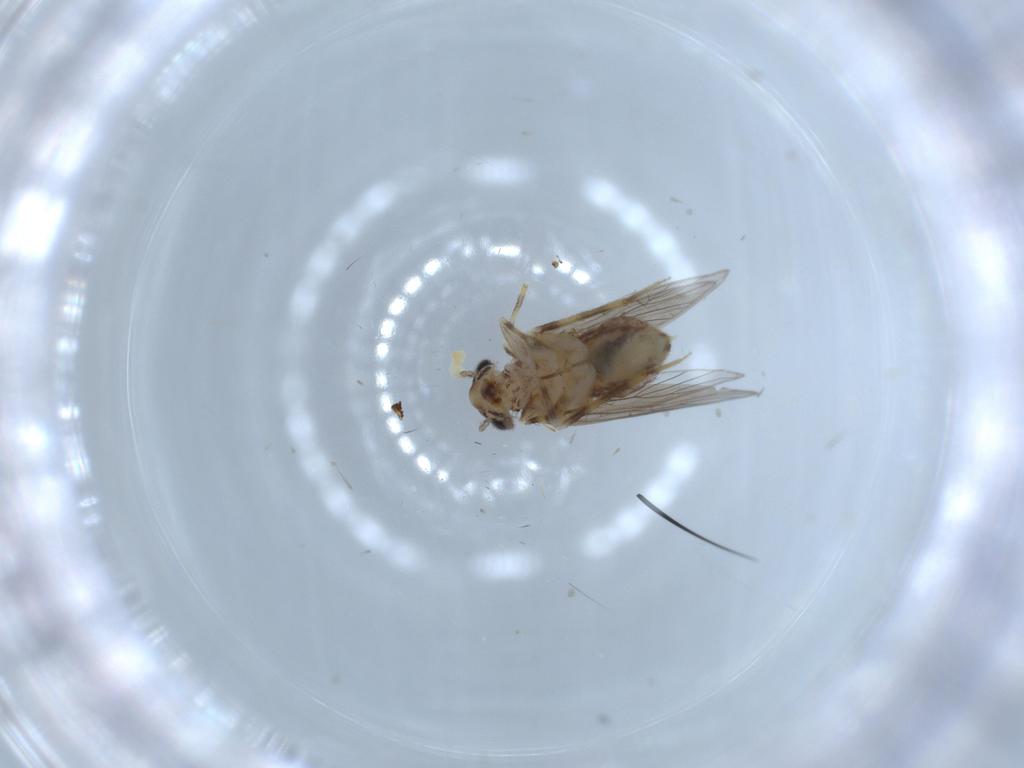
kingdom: Animalia
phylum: Arthropoda
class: Insecta
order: Psocodea
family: Lepidopsocidae
